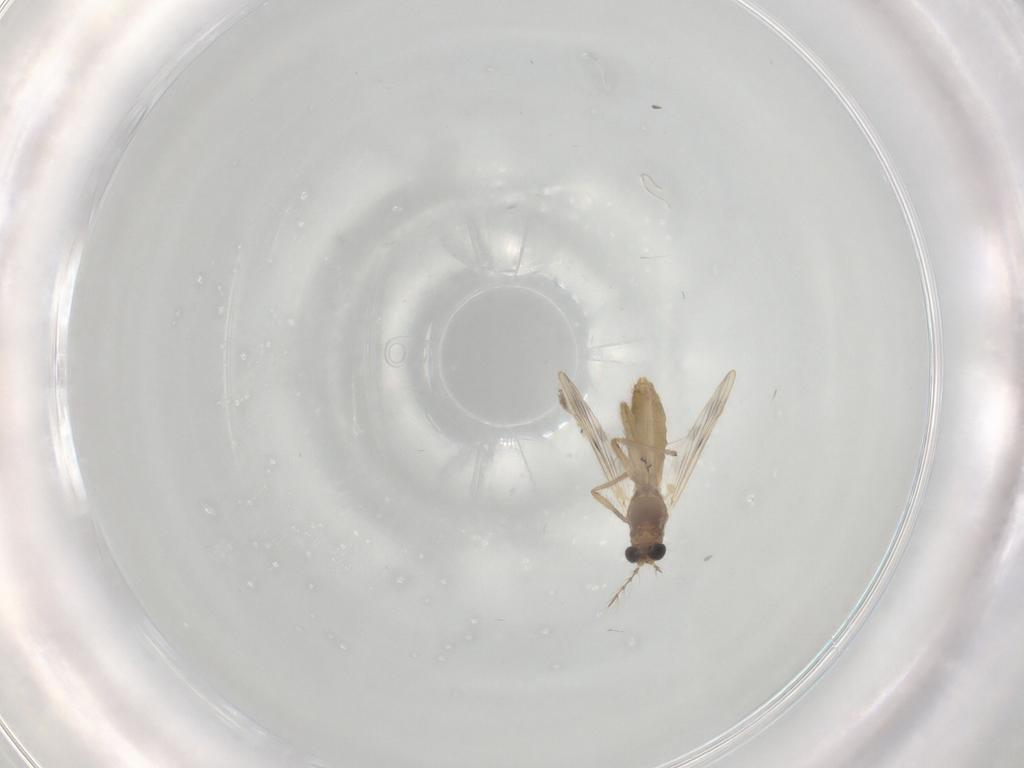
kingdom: Animalia
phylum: Arthropoda
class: Insecta
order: Diptera
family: Chironomidae
